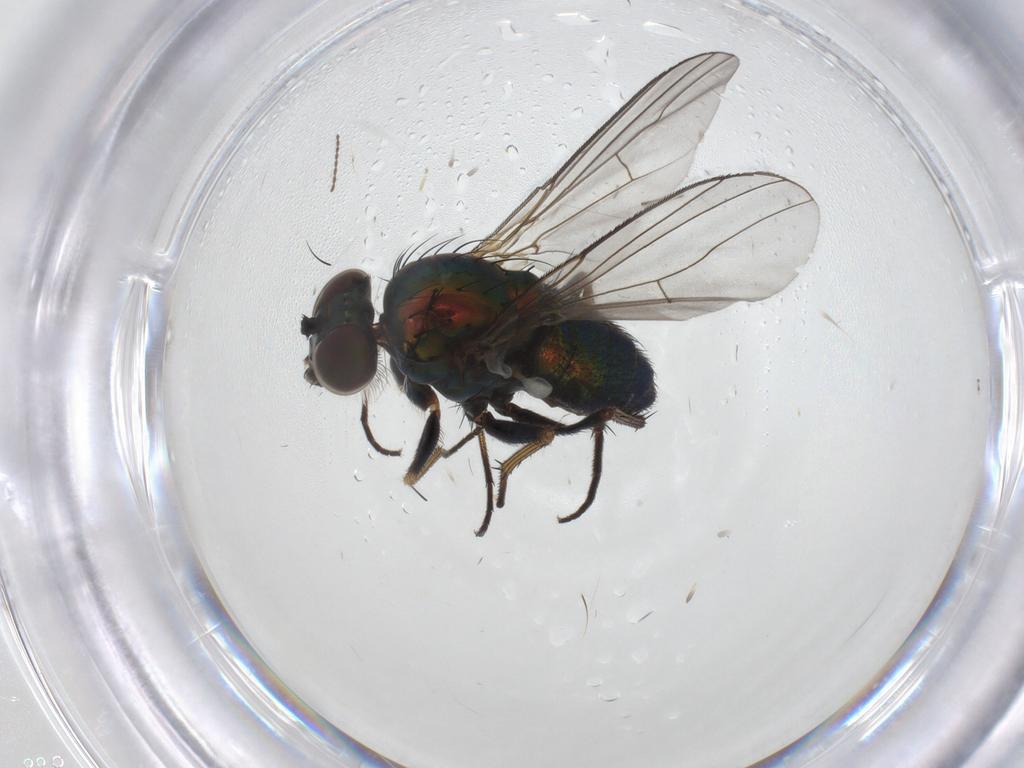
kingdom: Animalia
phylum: Arthropoda
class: Insecta
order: Diptera
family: Dolichopodidae
